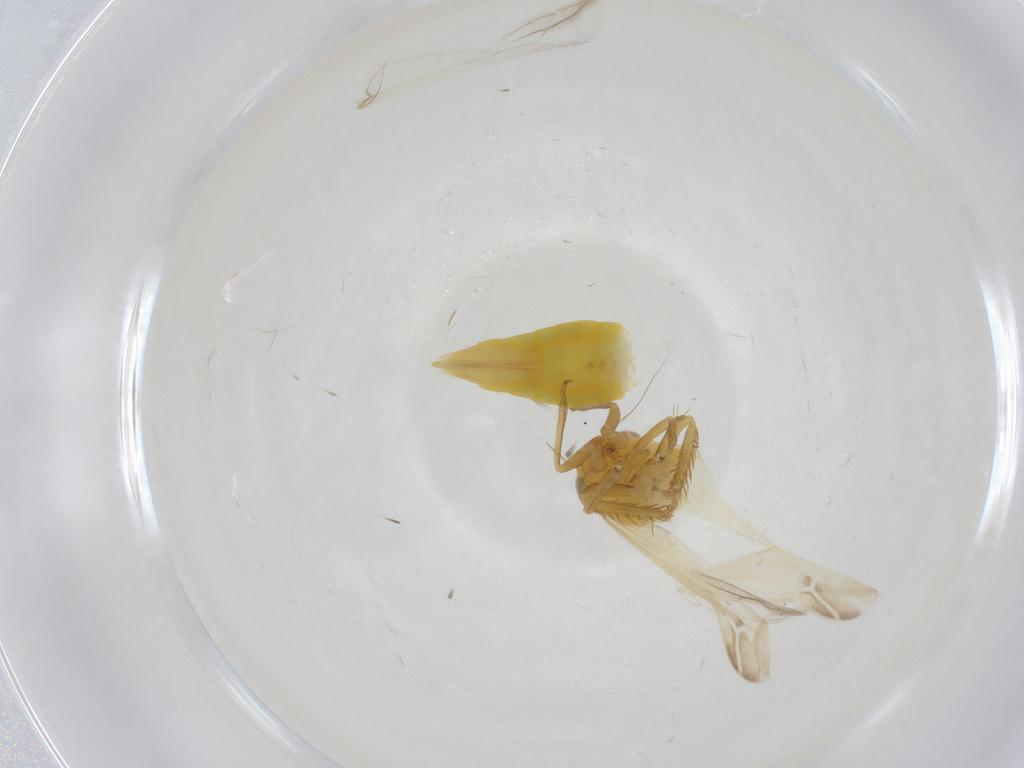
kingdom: Animalia
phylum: Arthropoda
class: Insecta
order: Hemiptera
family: Cicadellidae
